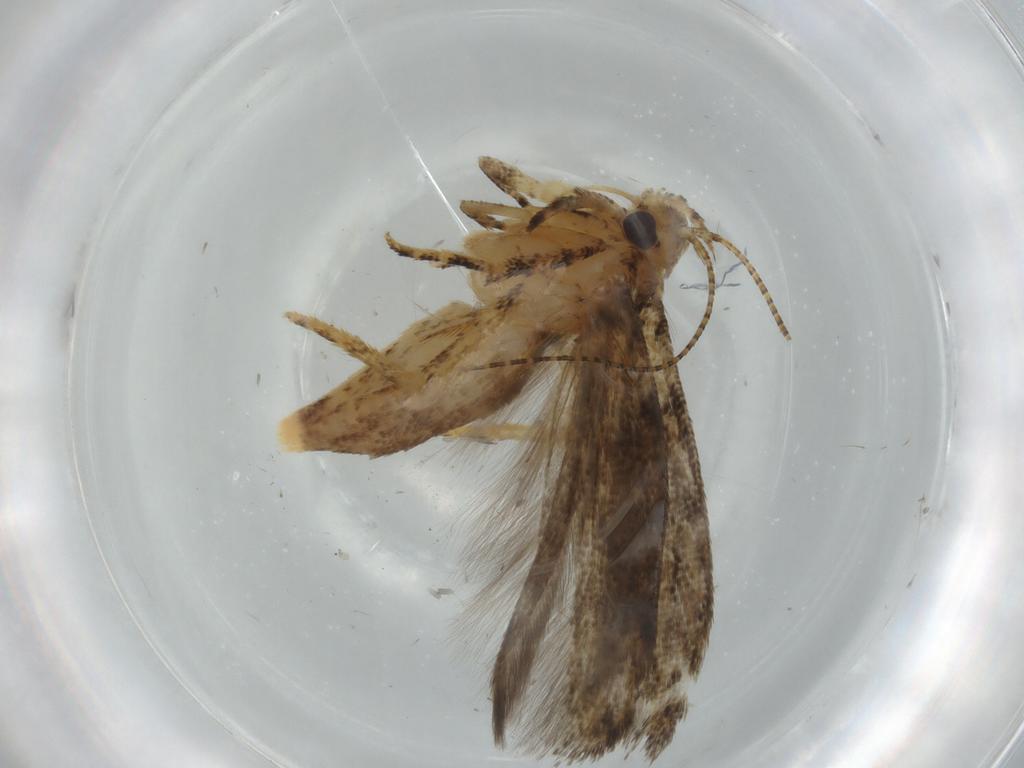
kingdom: Animalia
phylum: Arthropoda
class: Insecta
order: Lepidoptera
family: Gelechiidae
